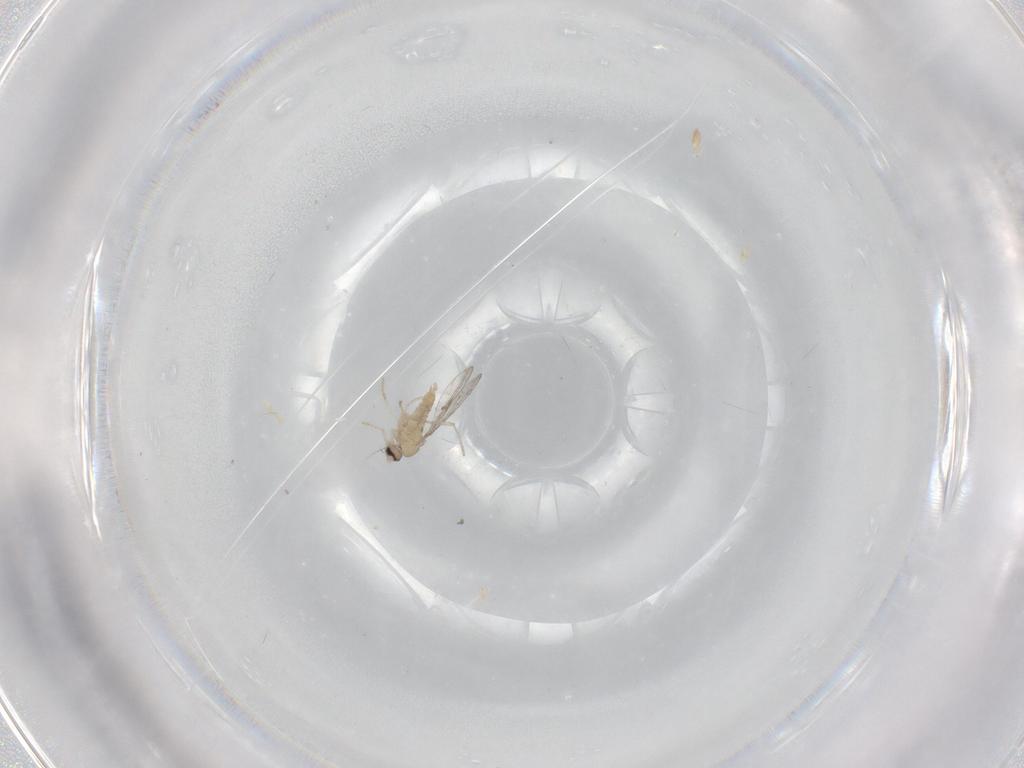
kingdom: Animalia
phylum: Arthropoda
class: Insecta
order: Diptera
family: Cecidomyiidae
